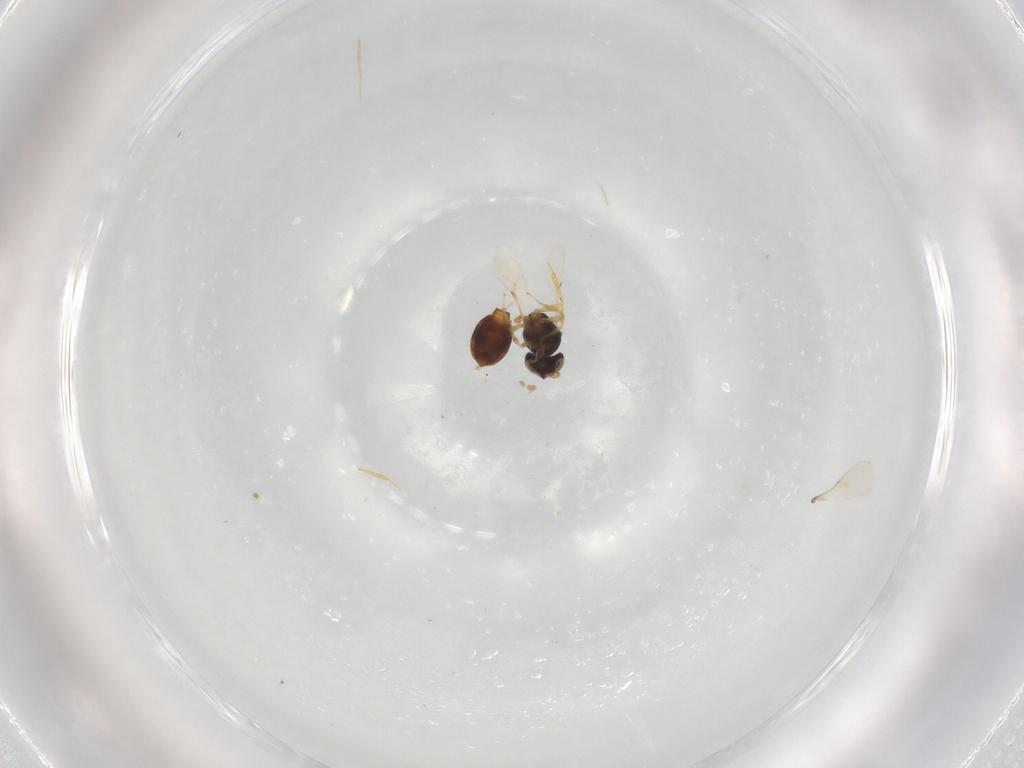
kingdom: Animalia
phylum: Arthropoda
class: Insecta
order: Hymenoptera
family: Scelionidae
